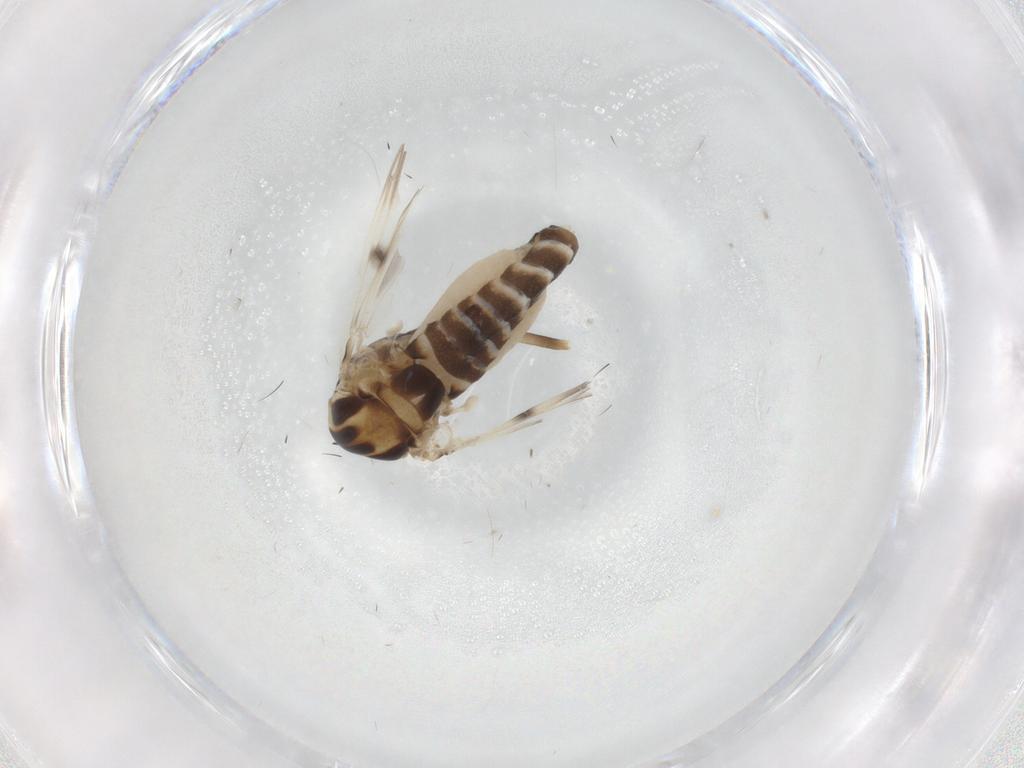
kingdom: Animalia
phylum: Arthropoda
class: Insecta
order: Diptera
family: Chironomidae
